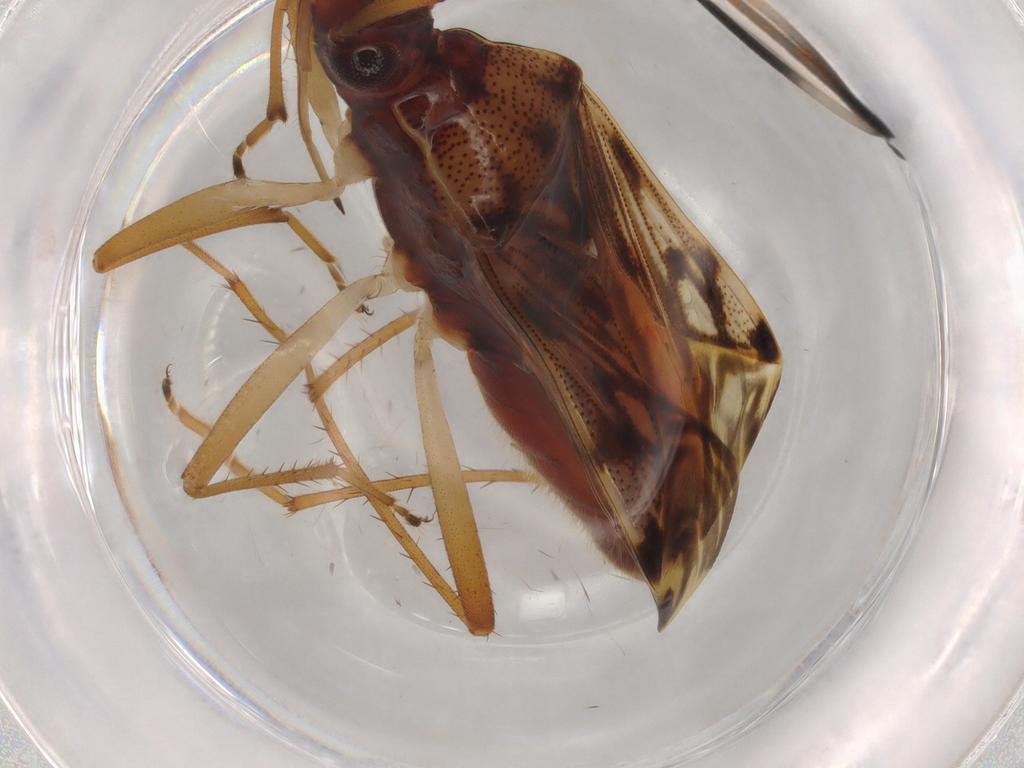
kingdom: Animalia
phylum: Arthropoda
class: Insecta
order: Hemiptera
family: Rhyparochromidae
